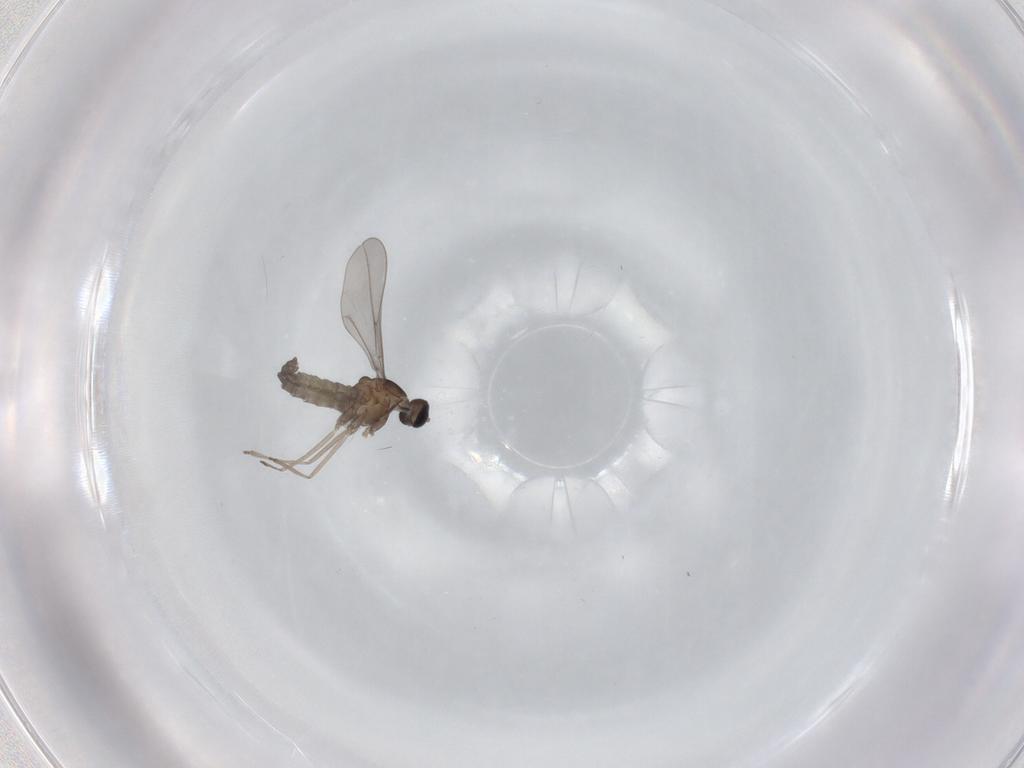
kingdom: Animalia
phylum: Arthropoda
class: Insecta
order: Diptera
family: Cecidomyiidae
